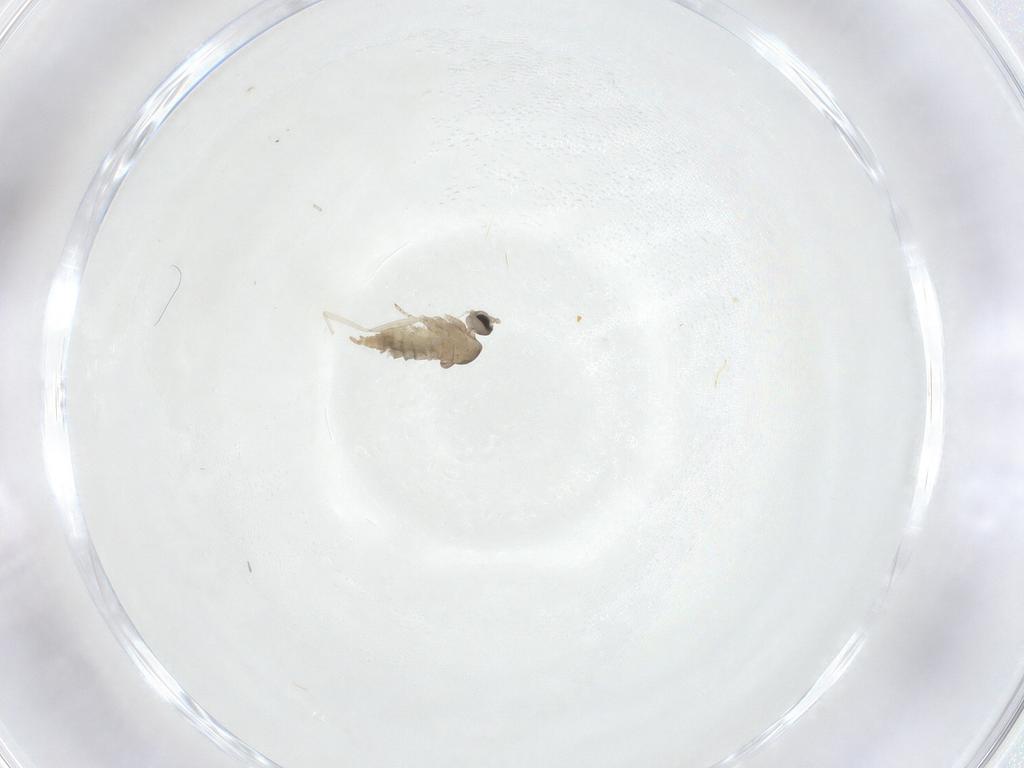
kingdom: Animalia
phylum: Arthropoda
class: Insecta
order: Diptera
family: Cecidomyiidae
